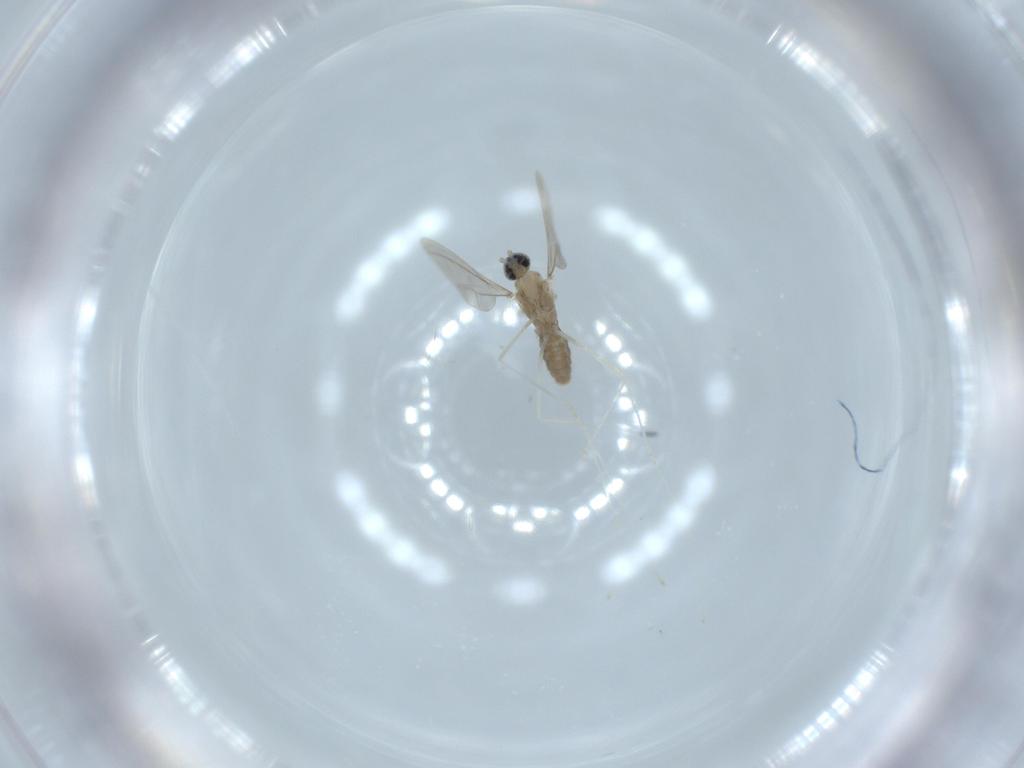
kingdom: Animalia
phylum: Arthropoda
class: Insecta
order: Diptera
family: Cecidomyiidae
